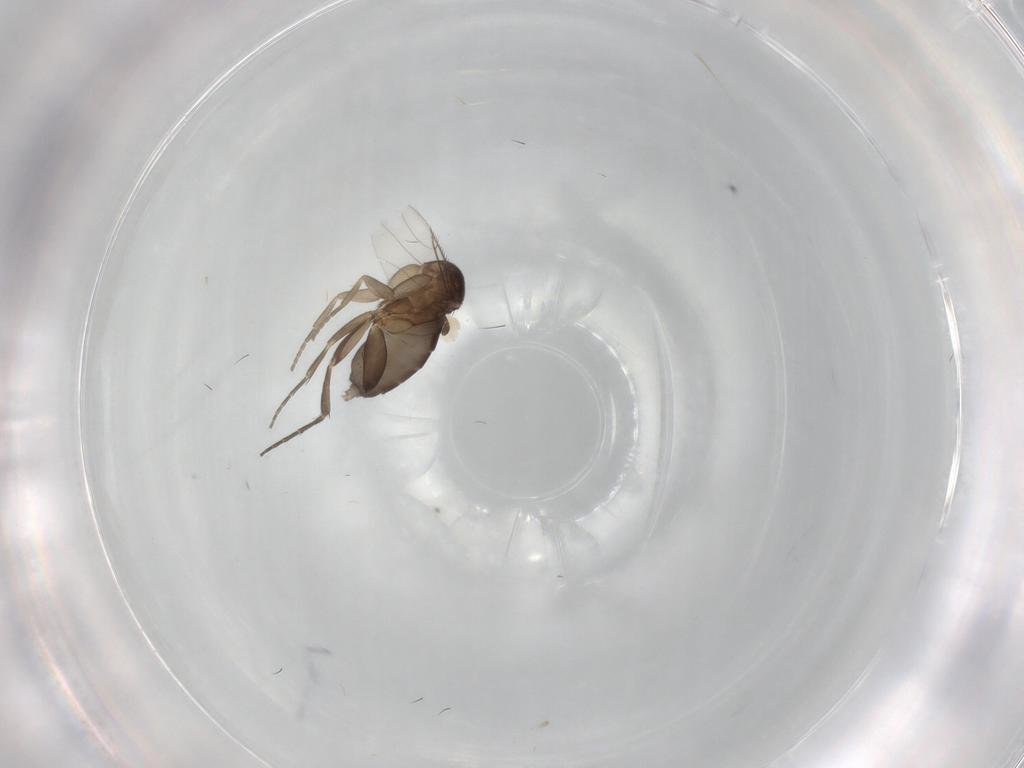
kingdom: Animalia
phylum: Arthropoda
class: Insecta
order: Diptera
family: Phoridae
